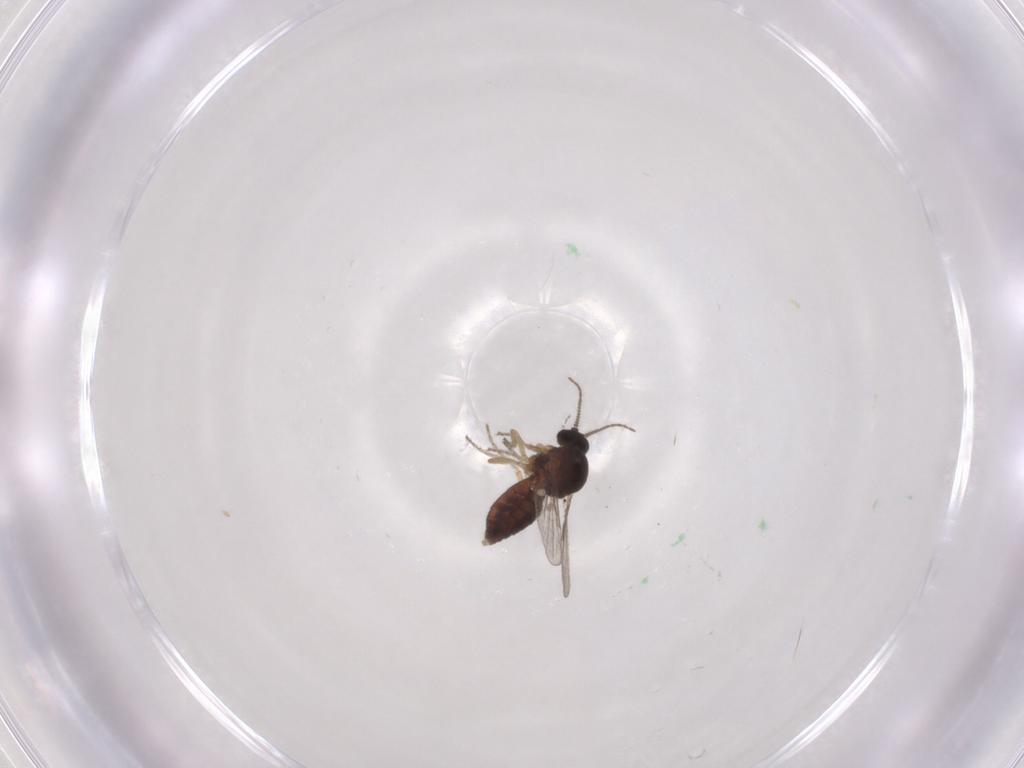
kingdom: Animalia
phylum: Arthropoda
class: Insecta
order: Diptera
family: Ceratopogonidae
